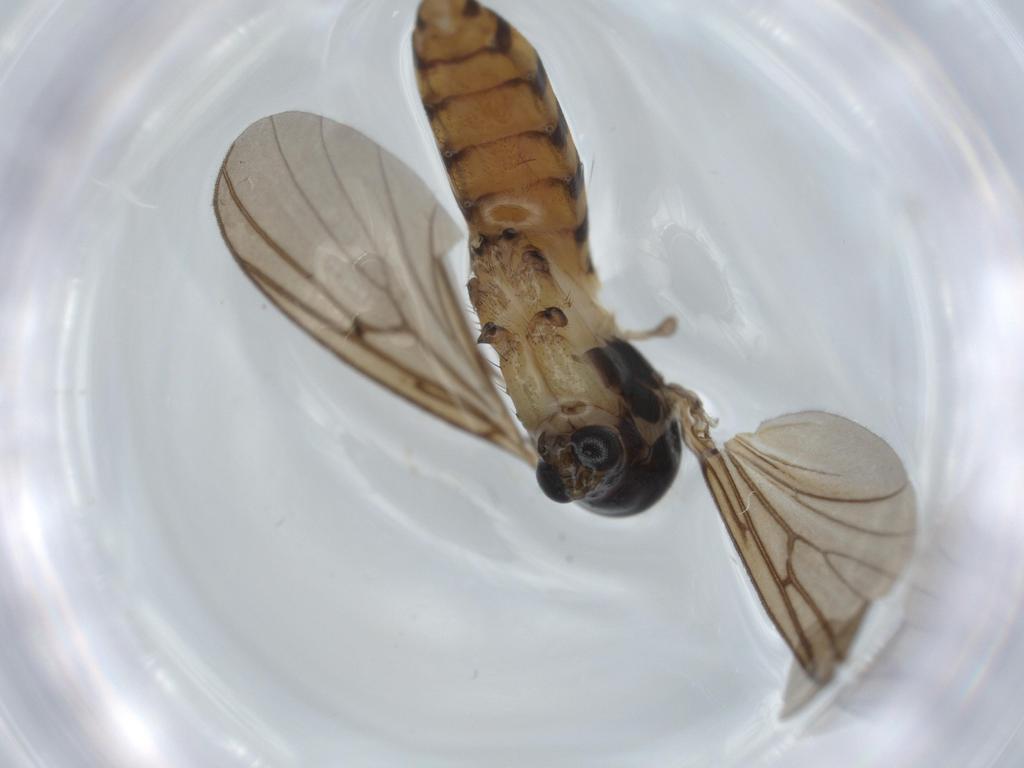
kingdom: Animalia
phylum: Arthropoda
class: Insecta
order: Diptera
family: Mycetophilidae
